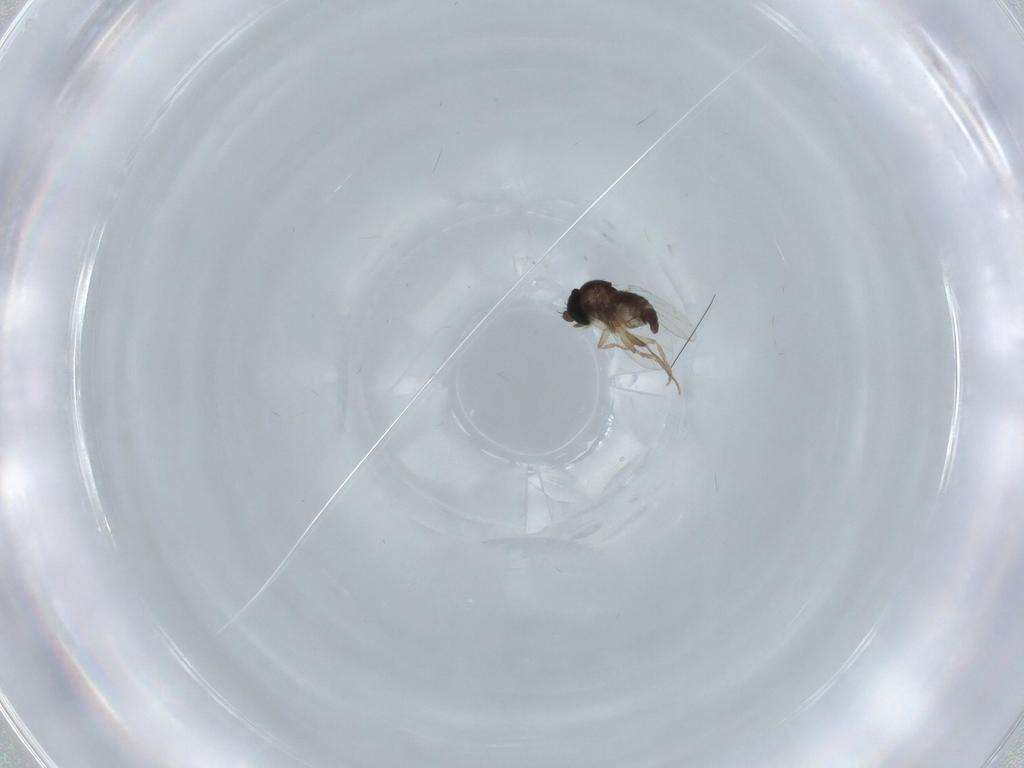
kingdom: Animalia
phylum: Arthropoda
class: Insecta
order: Diptera
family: Phoridae
